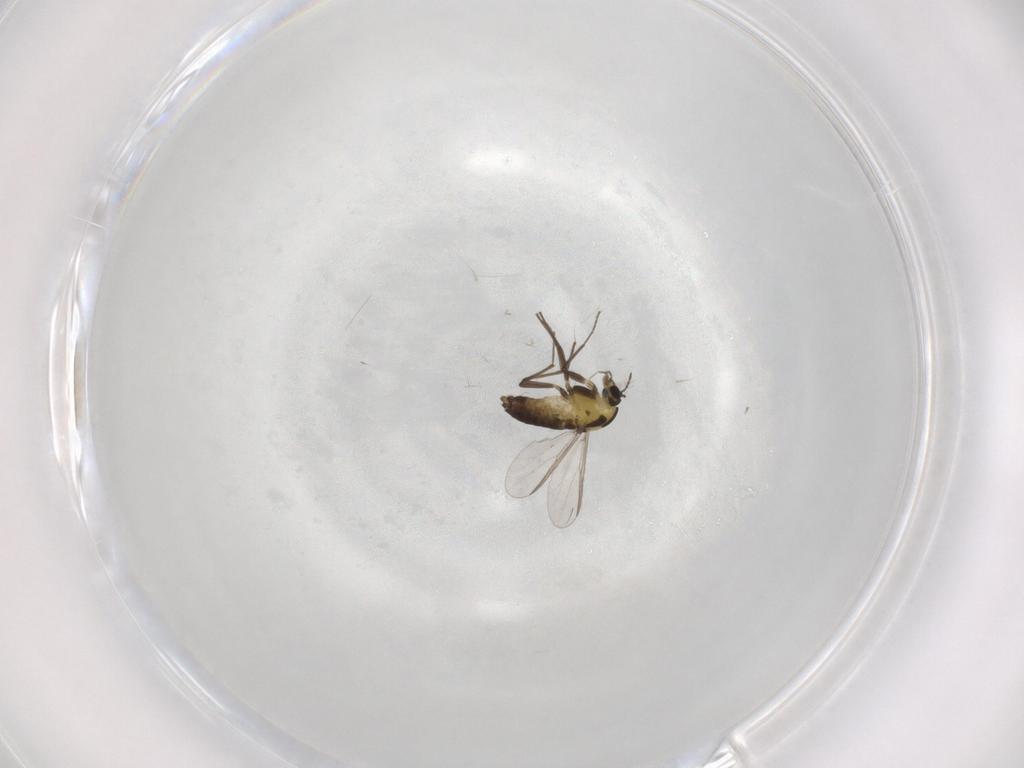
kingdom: Animalia
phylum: Arthropoda
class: Insecta
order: Diptera
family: Chironomidae
